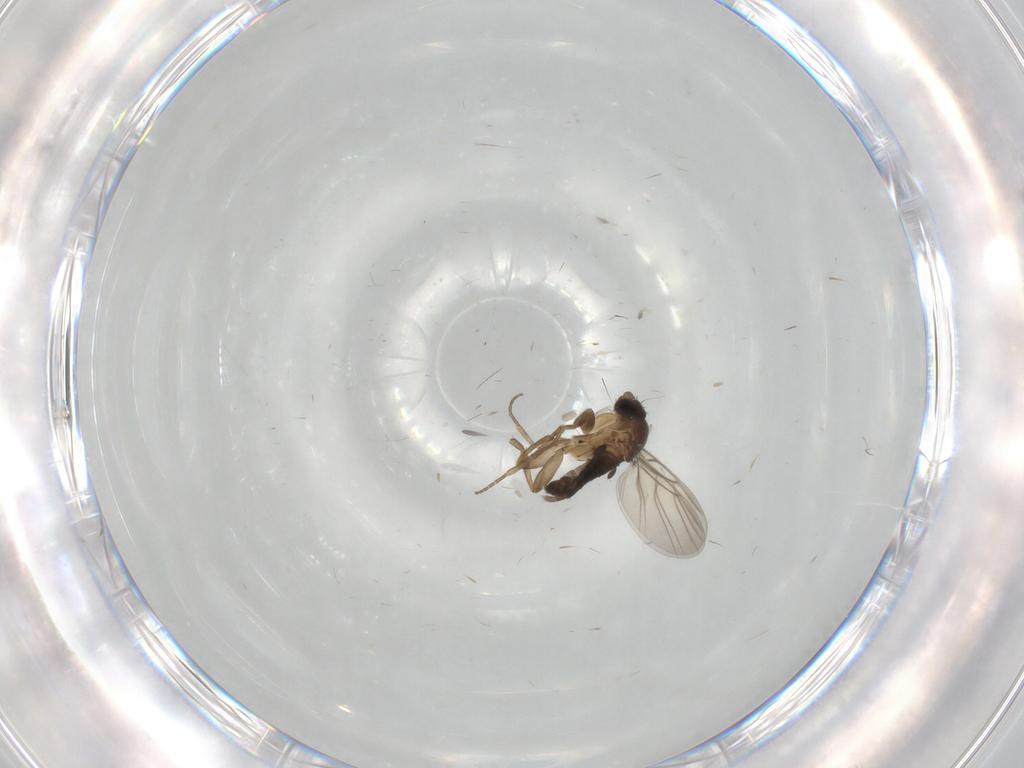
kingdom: Animalia
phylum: Arthropoda
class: Insecta
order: Diptera
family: Phoridae
